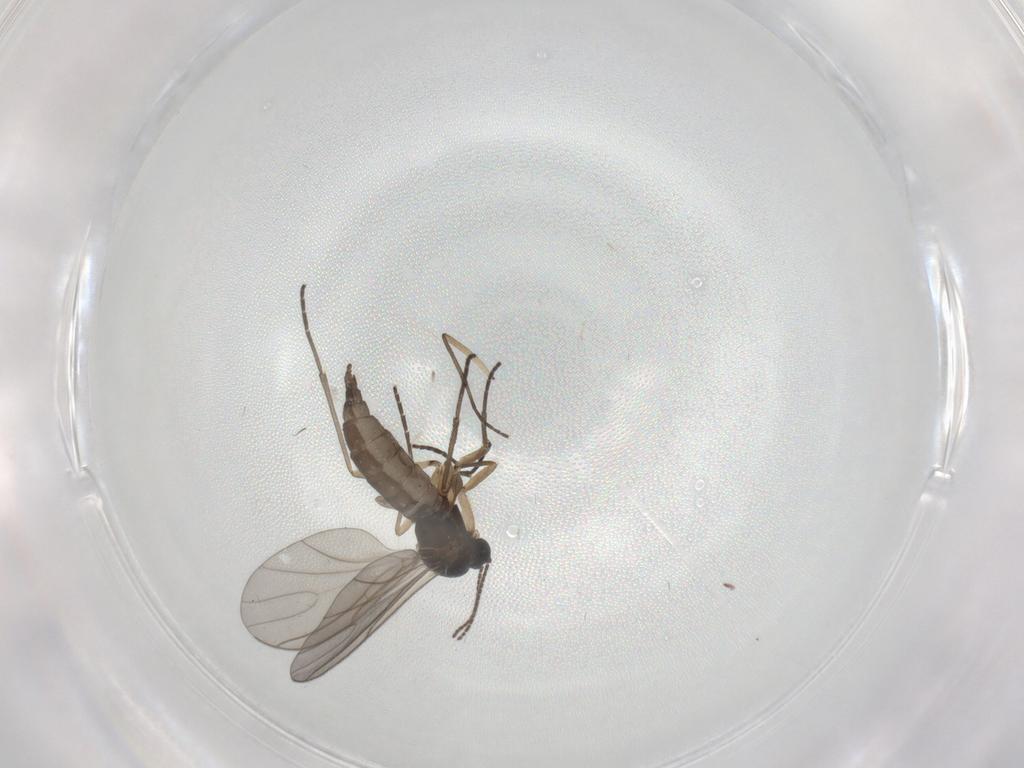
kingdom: Animalia
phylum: Arthropoda
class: Insecta
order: Diptera
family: Sciaridae
